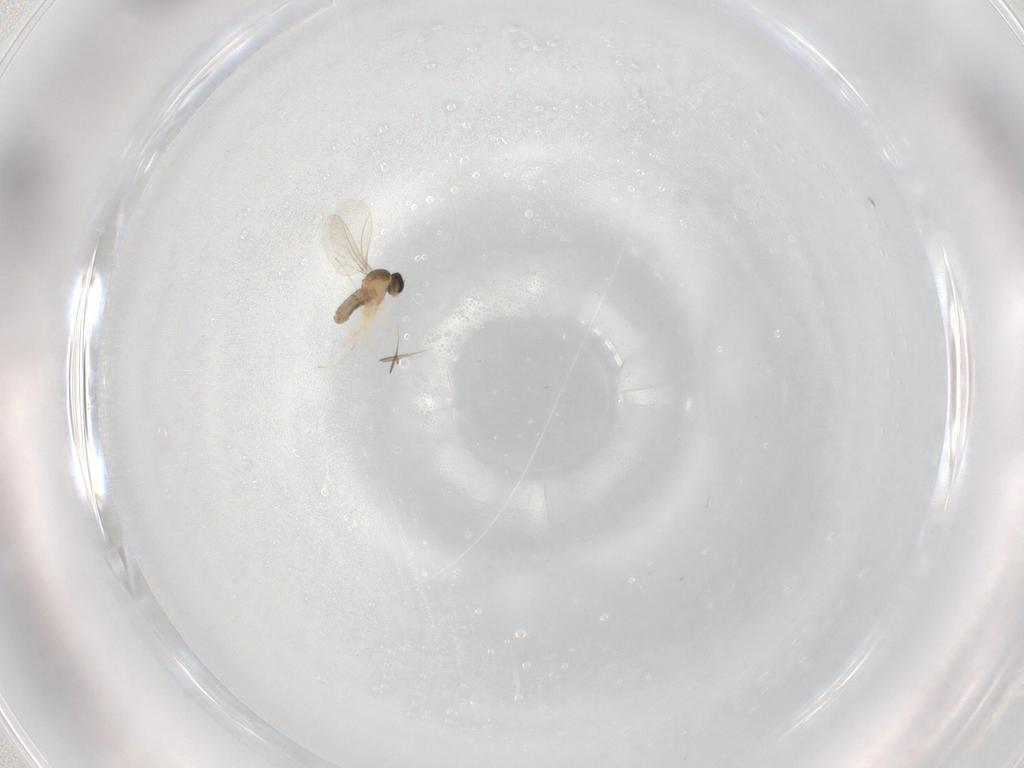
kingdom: Animalia
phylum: Arthropoda
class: Insecta
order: Diptera
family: Cecidomyiidae
